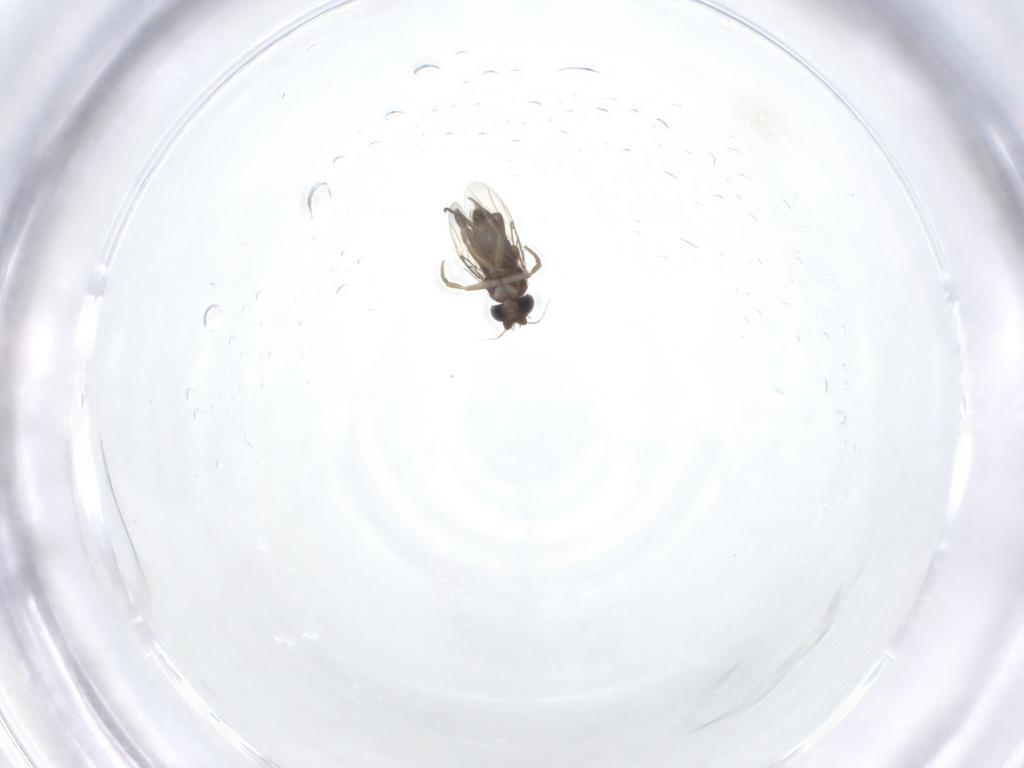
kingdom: Animalia
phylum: Arthropoda
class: Insecta
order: Diptera
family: Phoridae
